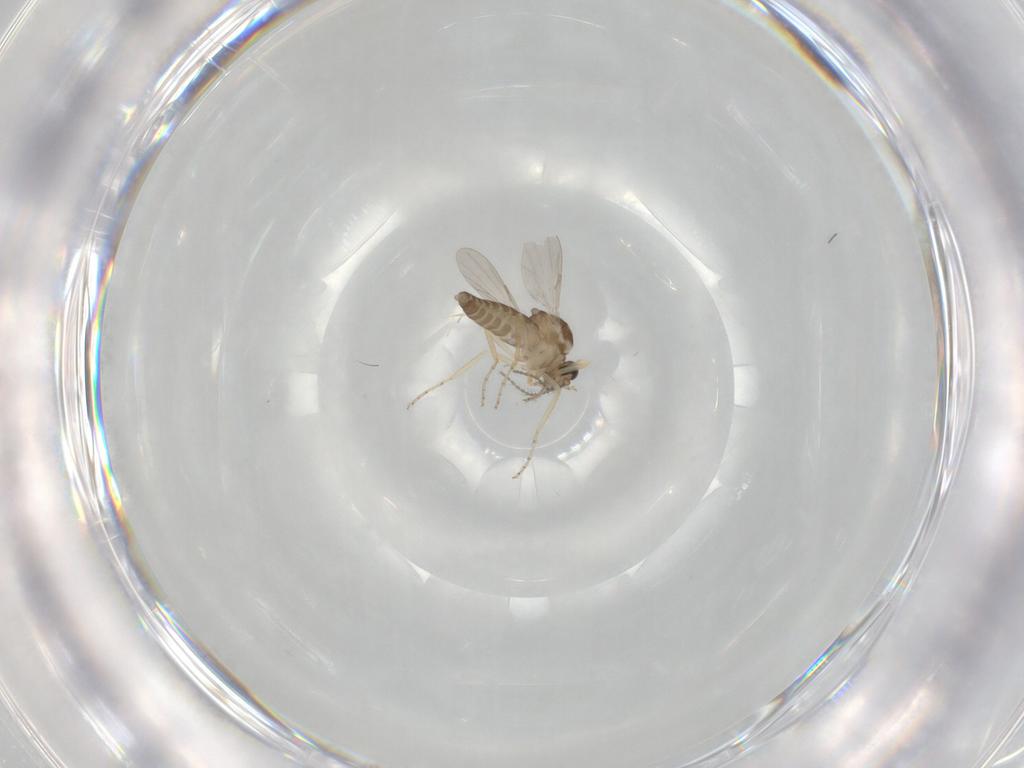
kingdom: Animalia
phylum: Arthropoda
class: Insecta
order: Diptera
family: Ceratopogonidae
